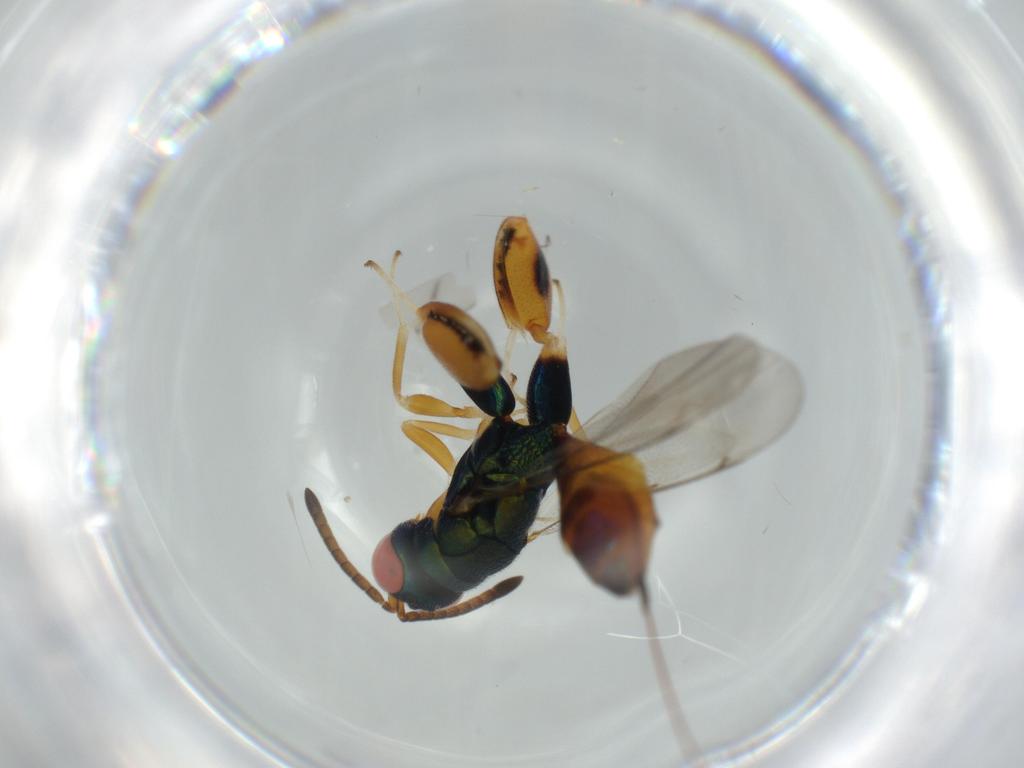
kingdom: Animalia
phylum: Arthropoda
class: Insecta
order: Hymenoptera
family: Torymidae
